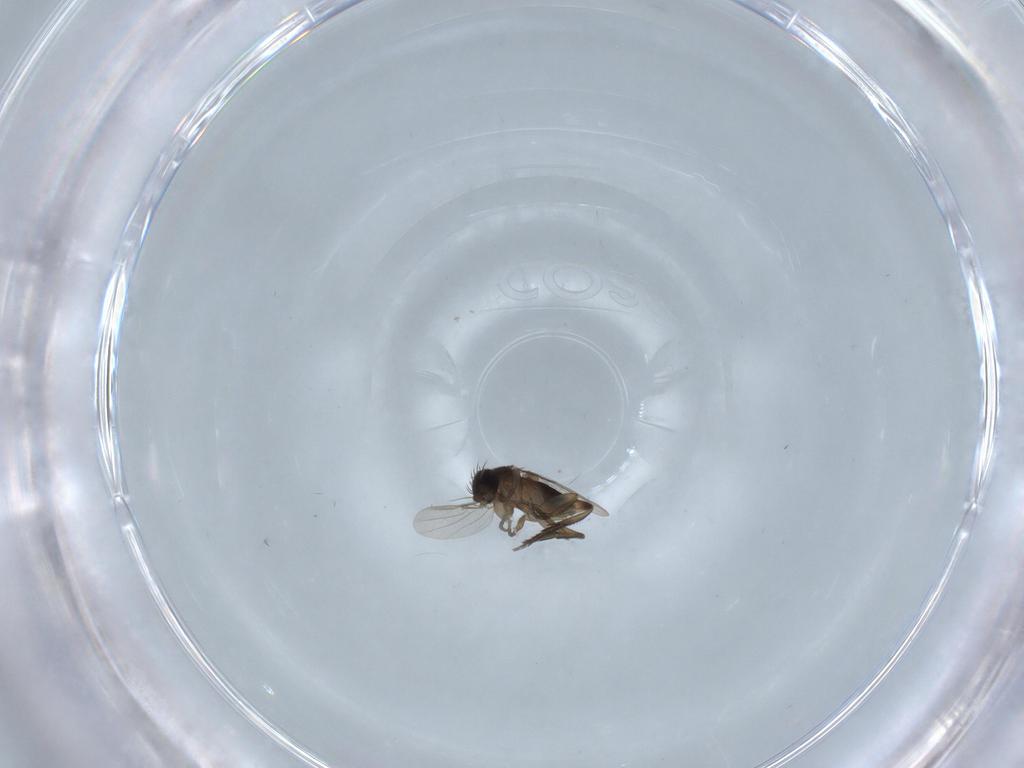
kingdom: Animalia
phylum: Arthropoda
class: Insecta
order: Diptera
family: Phoridae
